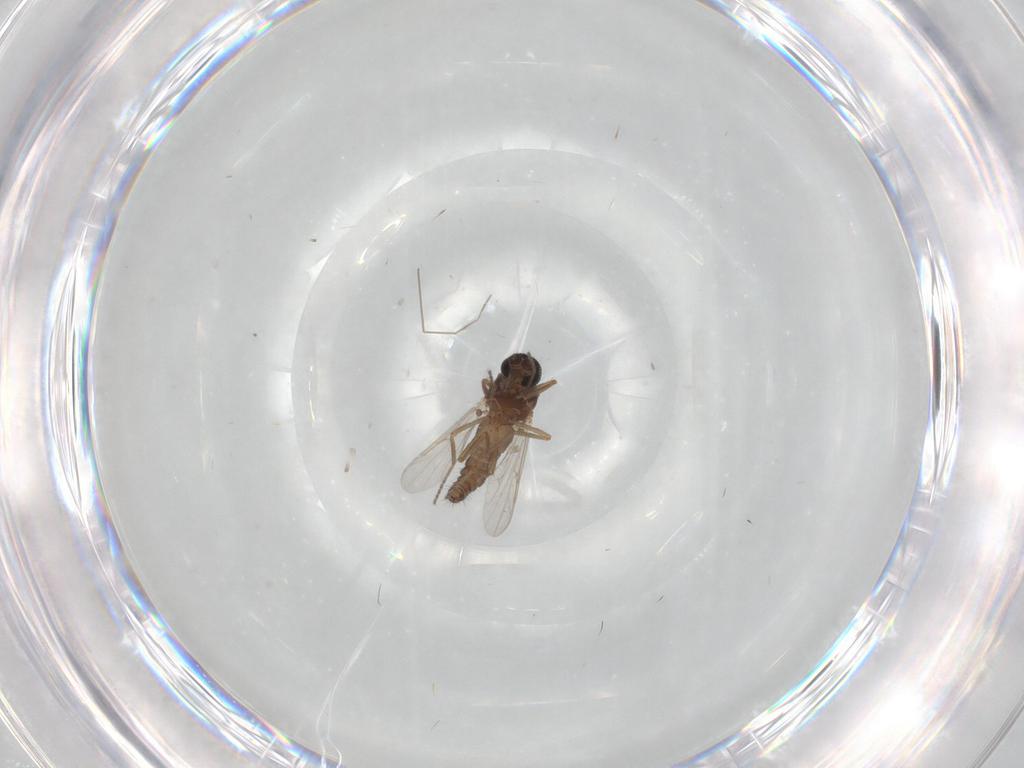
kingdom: Animalia
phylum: Arthropoda
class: Insecta
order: Diptera
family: Ceratopogonidae
